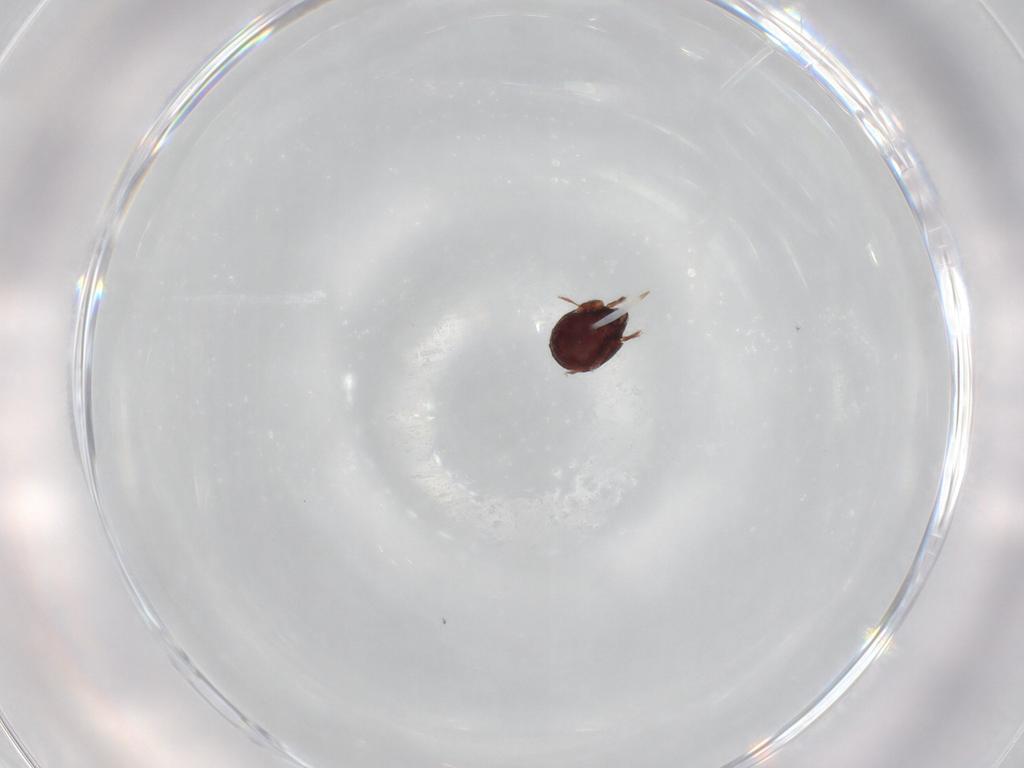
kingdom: Animalia
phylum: Arthropoda
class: Arachnida
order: Sarcoptiformes
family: Humerobatidae
